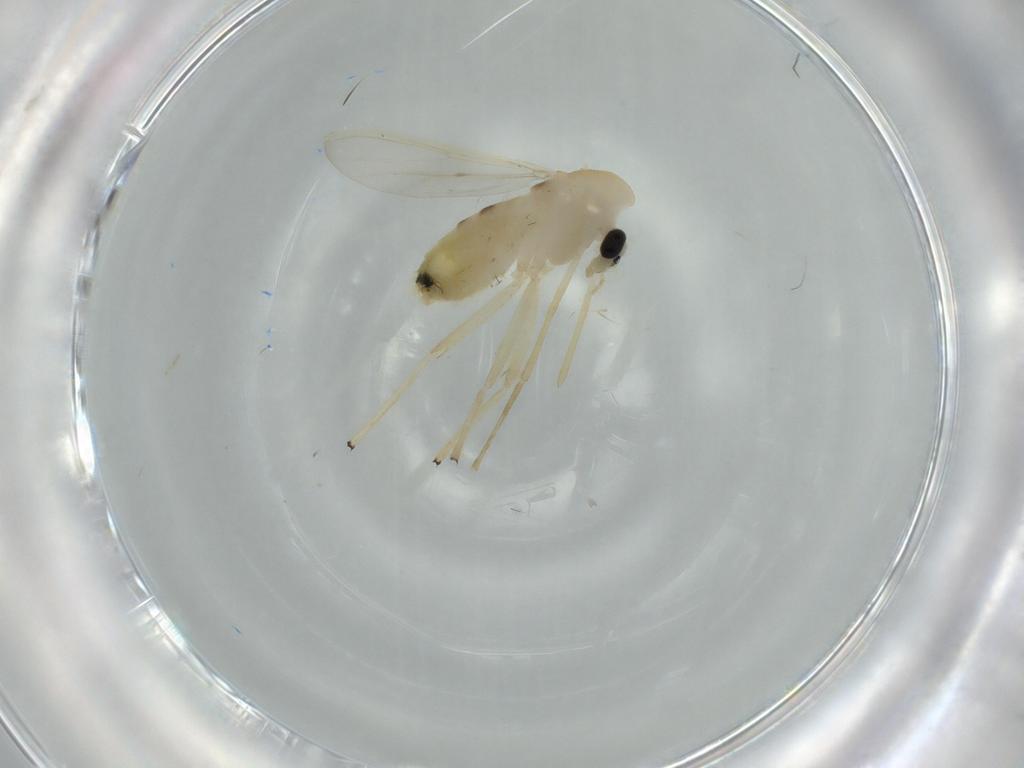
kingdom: Animalia
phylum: Arthropoda
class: Insecta
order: Diptera
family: Chironomidae
